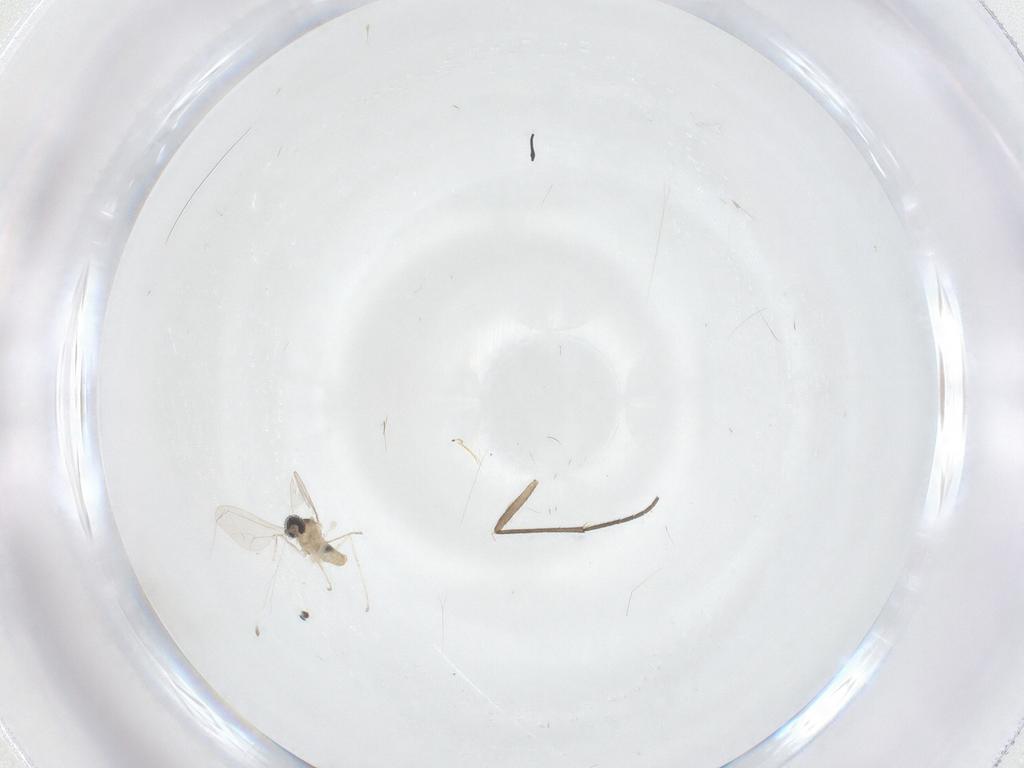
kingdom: Animalia
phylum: Arthropoda
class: Insecta
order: Diptera
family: Sciaridae
